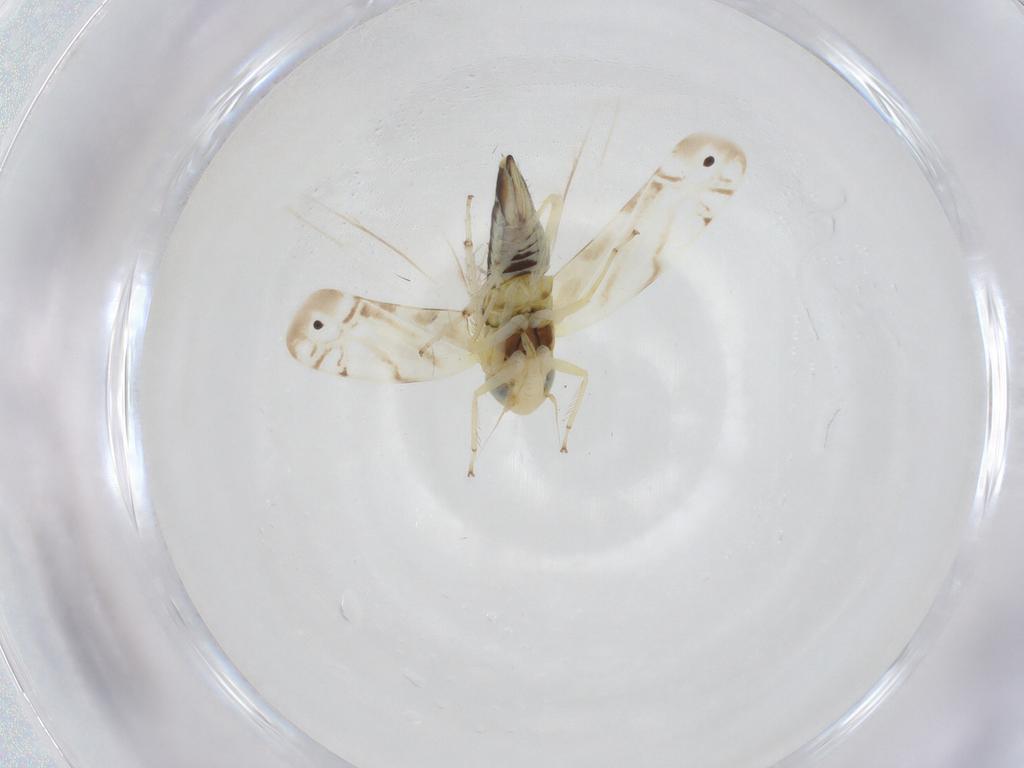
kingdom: Animalia
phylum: Arthropoda
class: Insecta
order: Hemiptera
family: Cicadellidae
